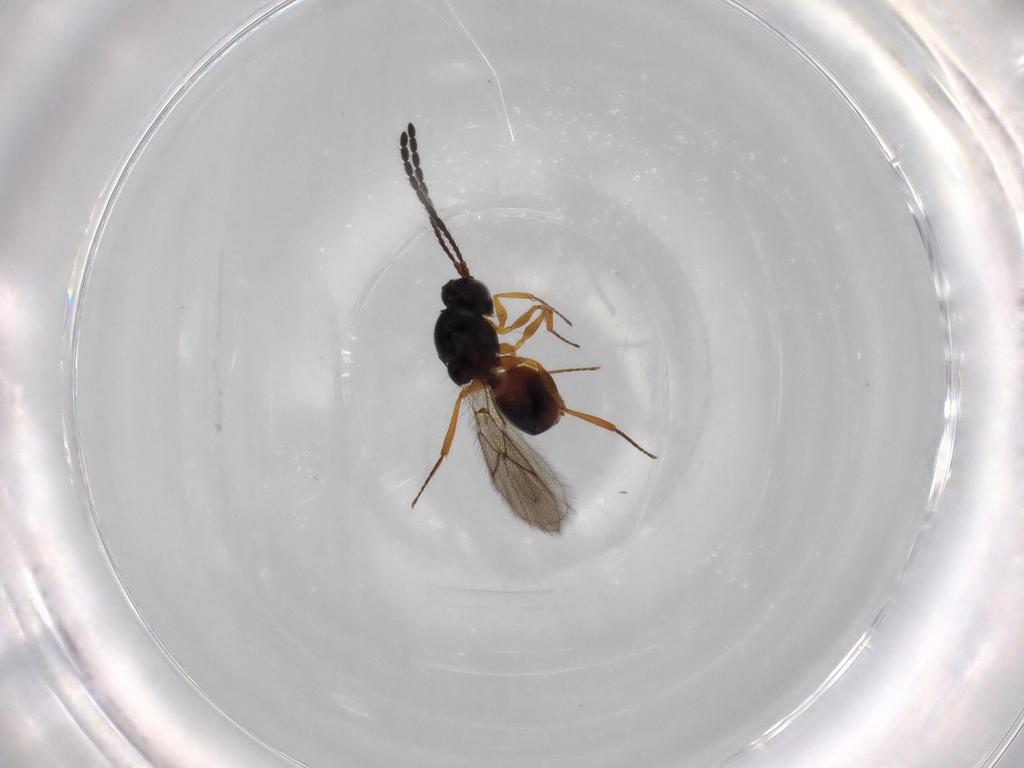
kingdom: Animalia
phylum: Arthropoda
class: Insecta
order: Hymenoptera
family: Figitidae
